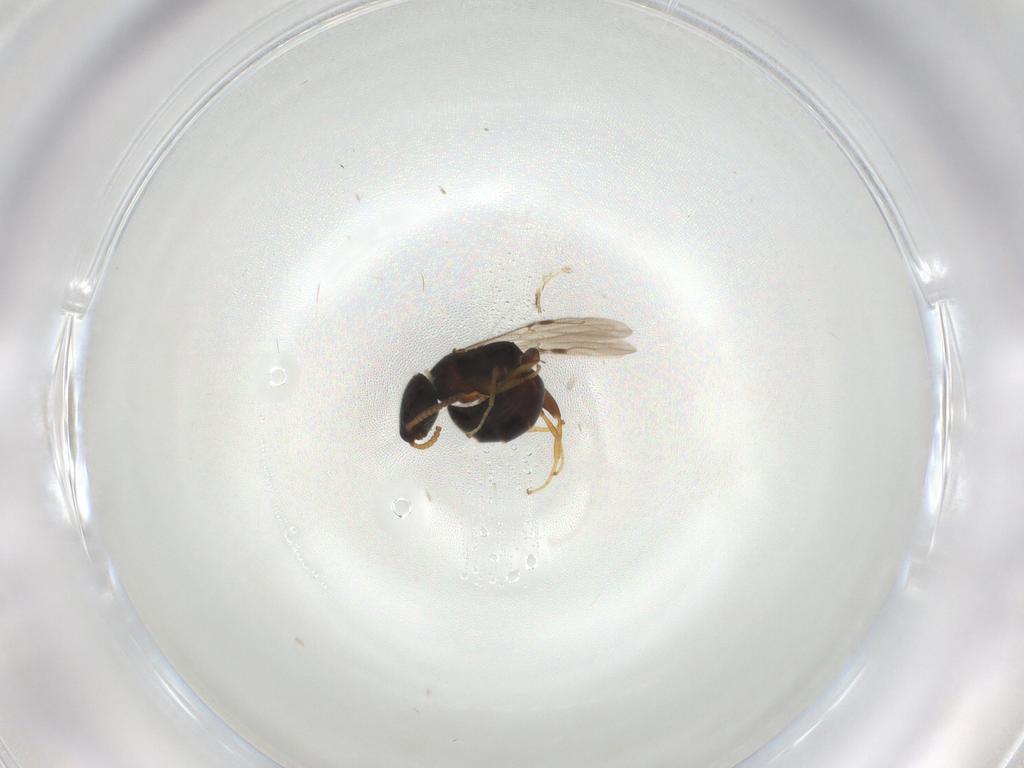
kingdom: Animalia
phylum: Arthropoda
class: Insecta
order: Hymenoptera
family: Bethylidae
